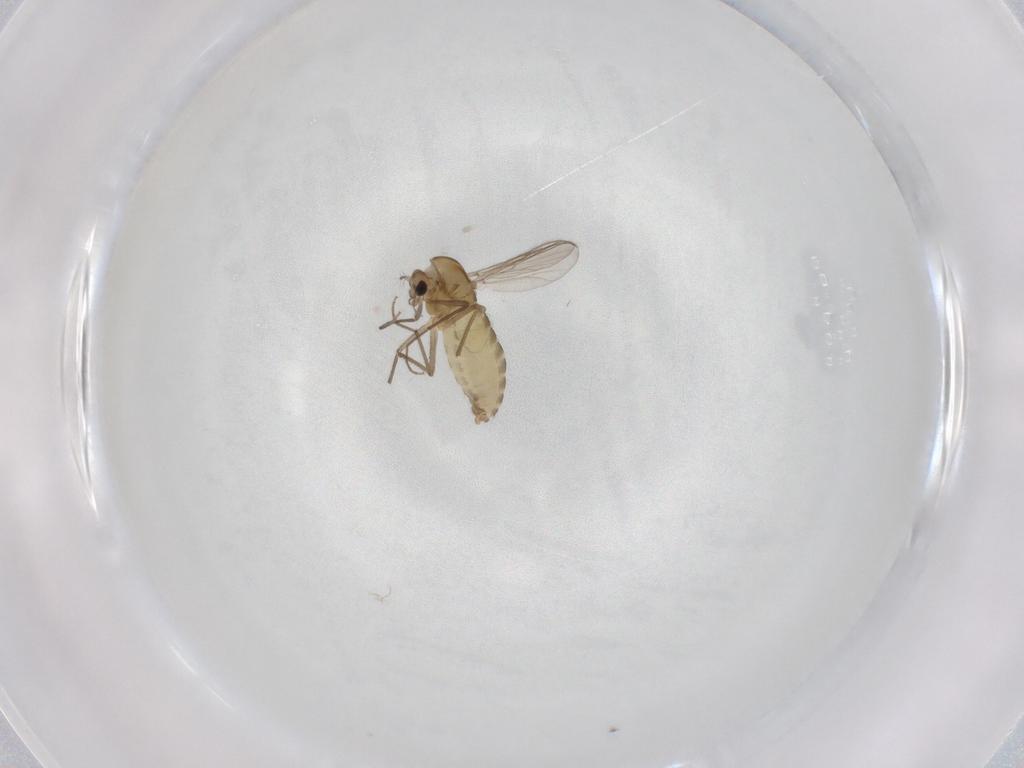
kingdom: Animalia
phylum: Arthropoda
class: Insecta
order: Diptera
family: Chironomidae
